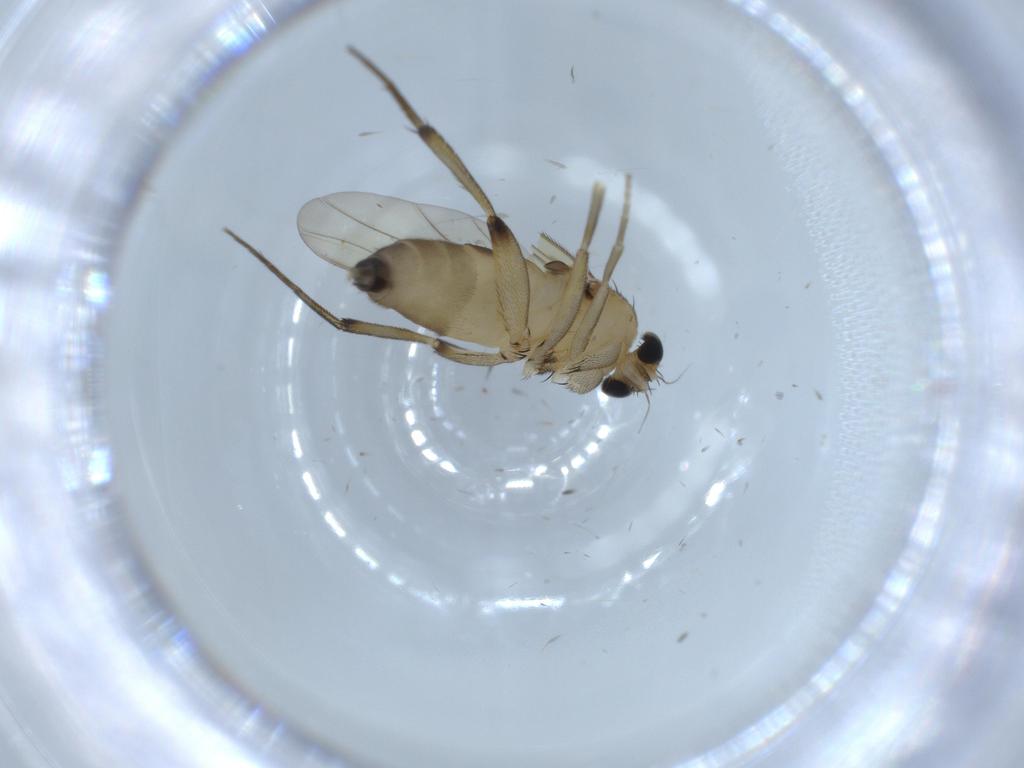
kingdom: Animalia
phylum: Arthropoda
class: Insecta
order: Diptera
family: Phoridae
